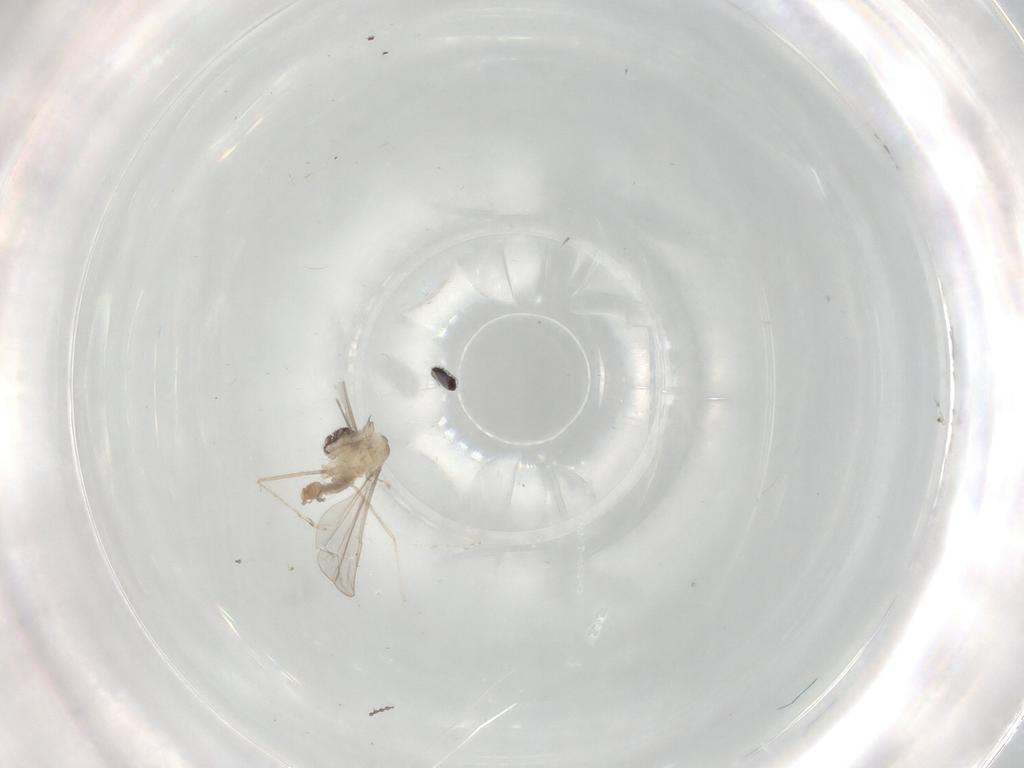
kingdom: Animalia
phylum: Arthropoda
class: Insecta
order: Diptera
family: Cecidomyiidae
